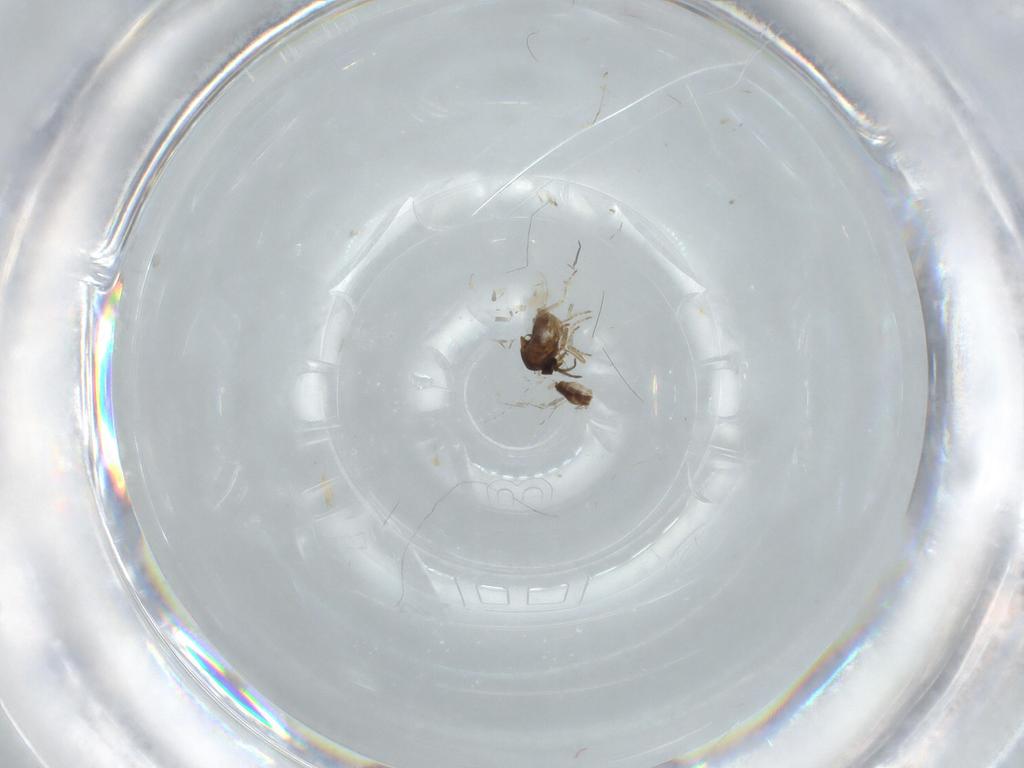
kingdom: Animalia
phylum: Arthropoda
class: Insecta
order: Diptera
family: Ceratopogonidae
